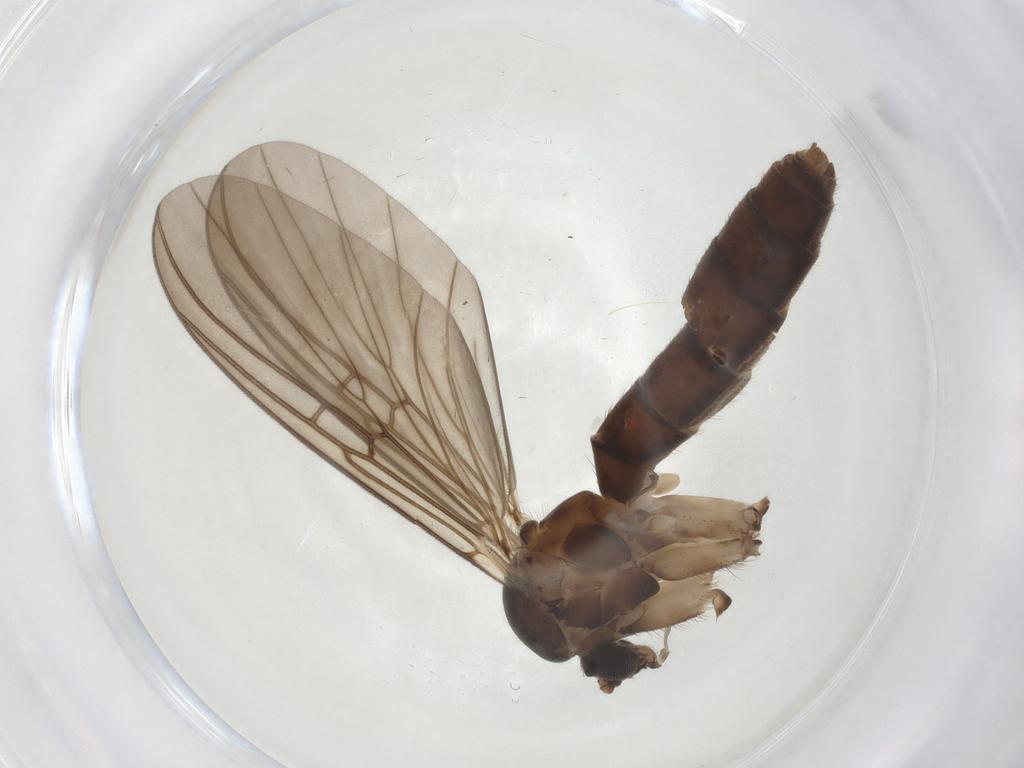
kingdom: Animalia
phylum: Arthropoda
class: Insecta
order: Diptera
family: Mycetophilidae
